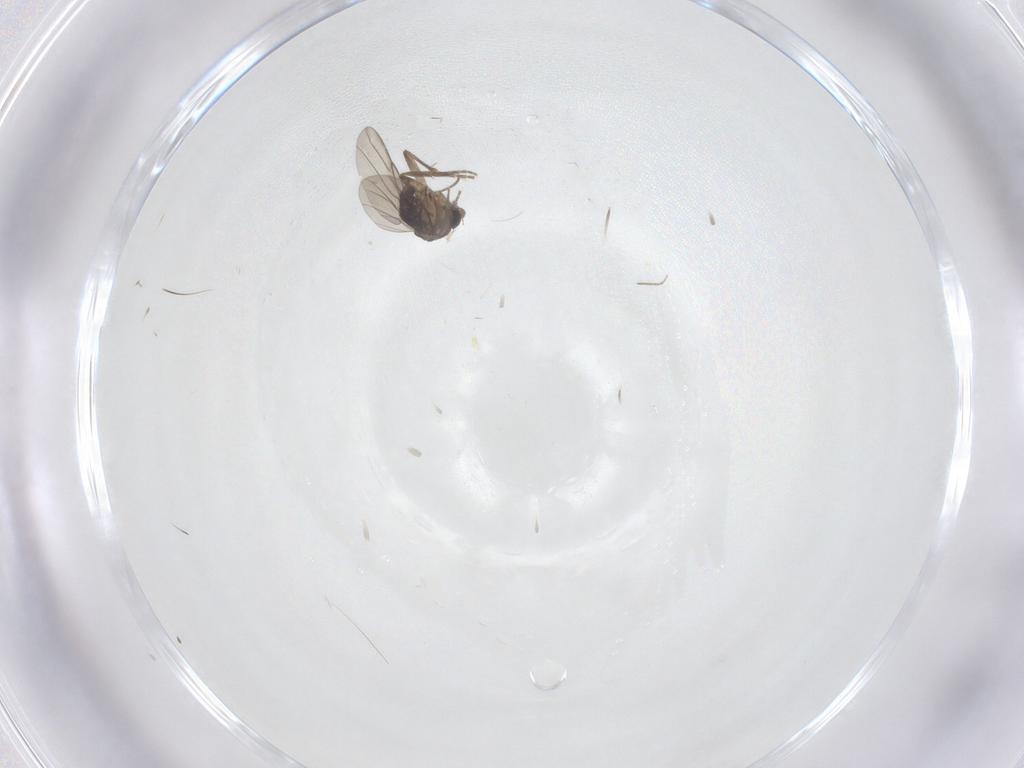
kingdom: Animalia
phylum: Arthropoda
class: Insecta
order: Diptera
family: Chironomidae
